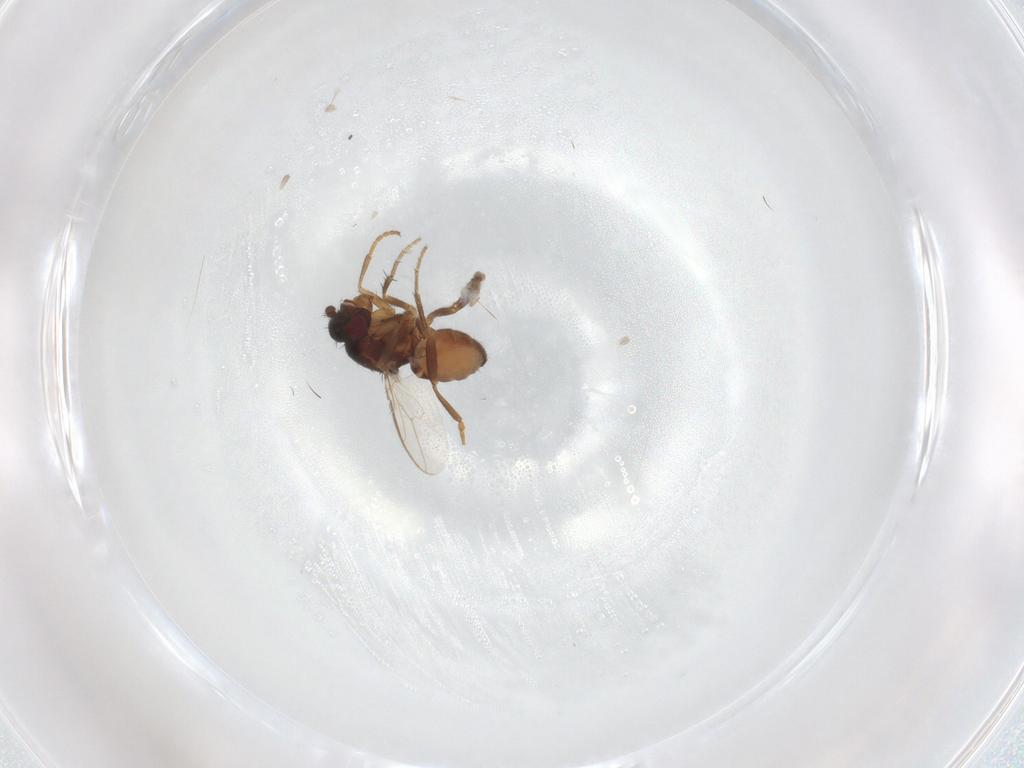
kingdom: Animalia
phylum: Arthropoda
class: Insecta
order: Diptera
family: Sphaeroceridae
